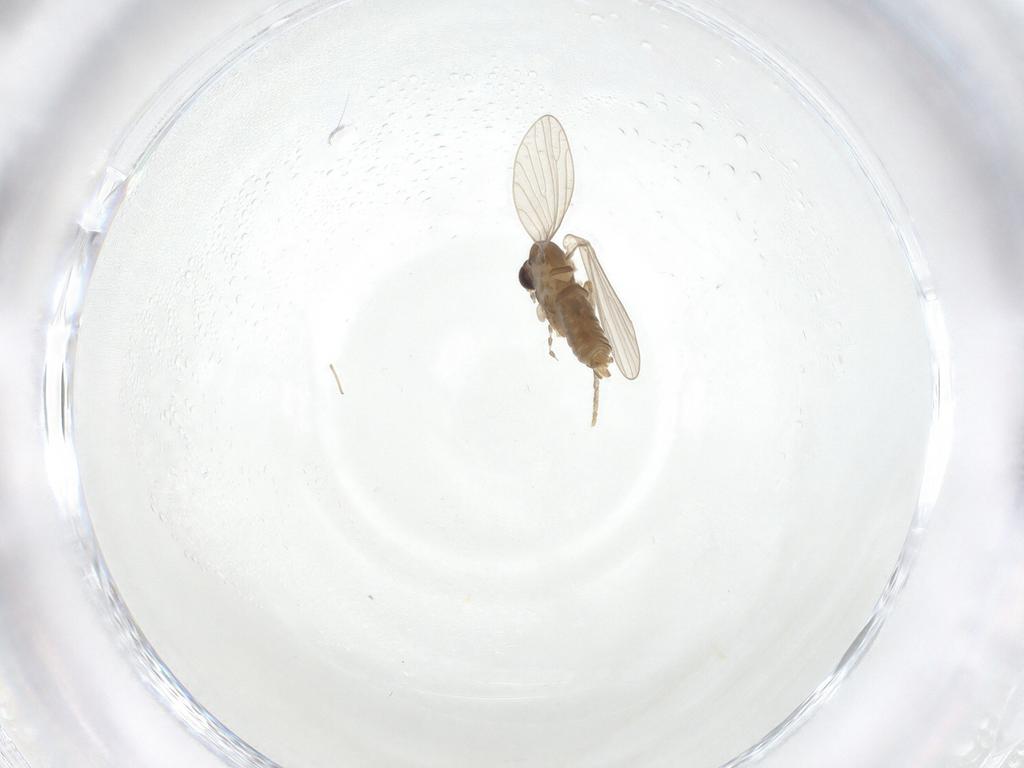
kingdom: Animalia
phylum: Arthropoda
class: Insecta
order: Diptera
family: Psychodidae
